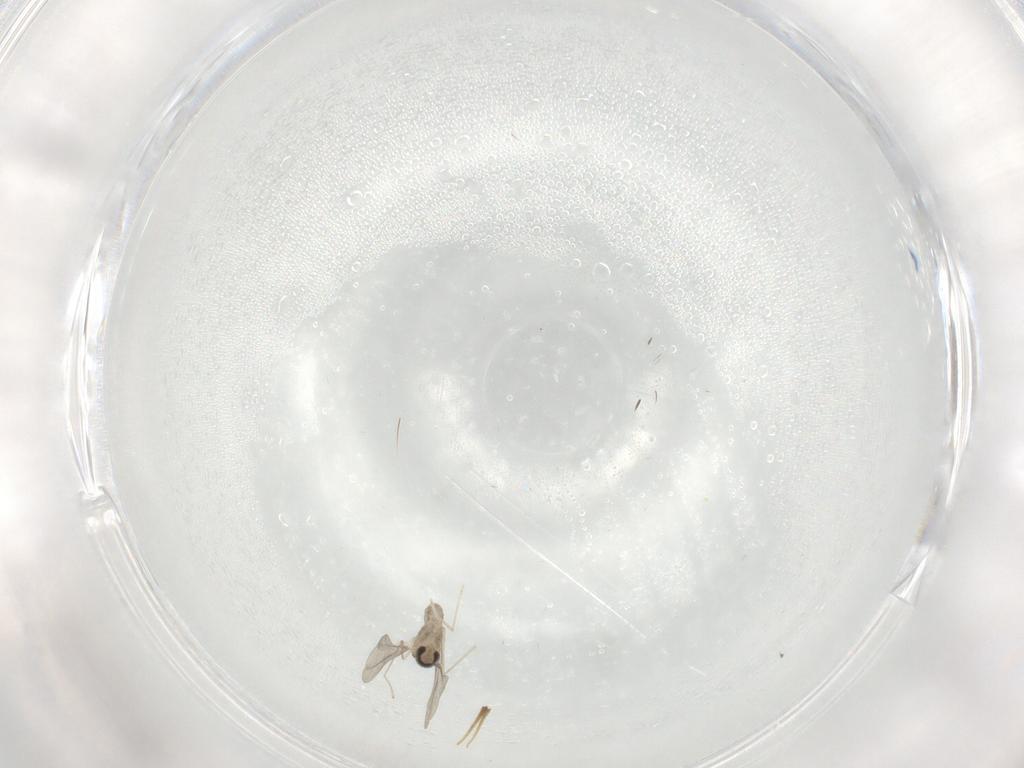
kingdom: Animalia
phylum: Arthropoda
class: Insecta
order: Diptera
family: Cecidomyiidae
